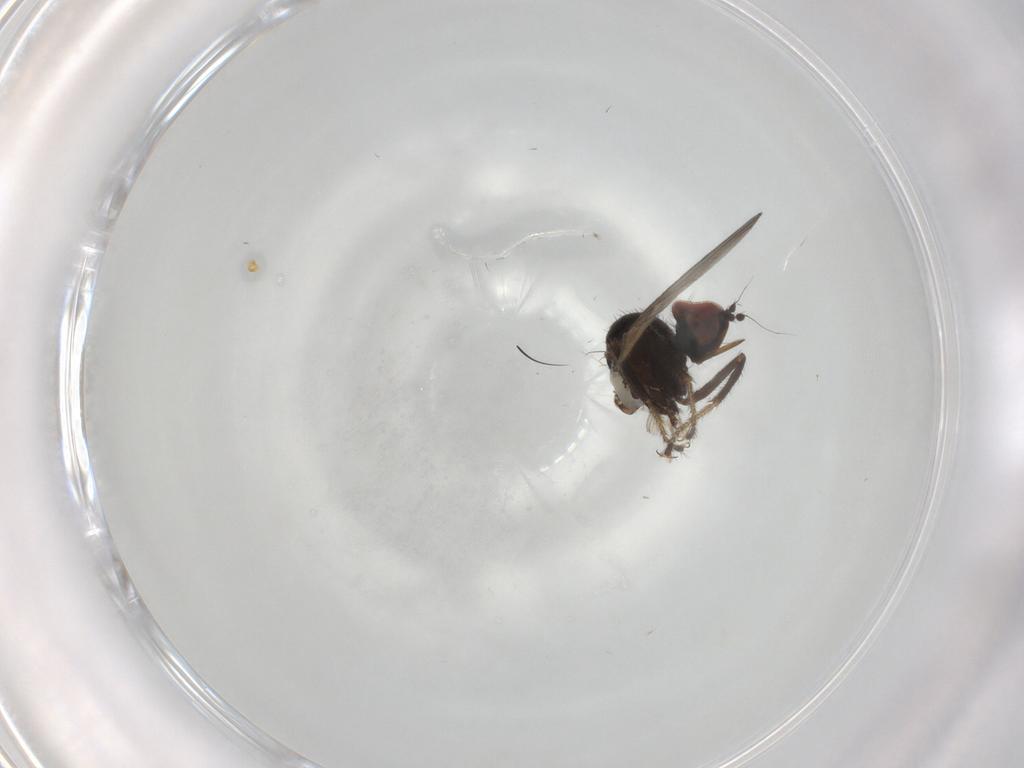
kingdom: Animalia
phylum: Arthropoda
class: Insecta
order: Diptera
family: Hybotidae
